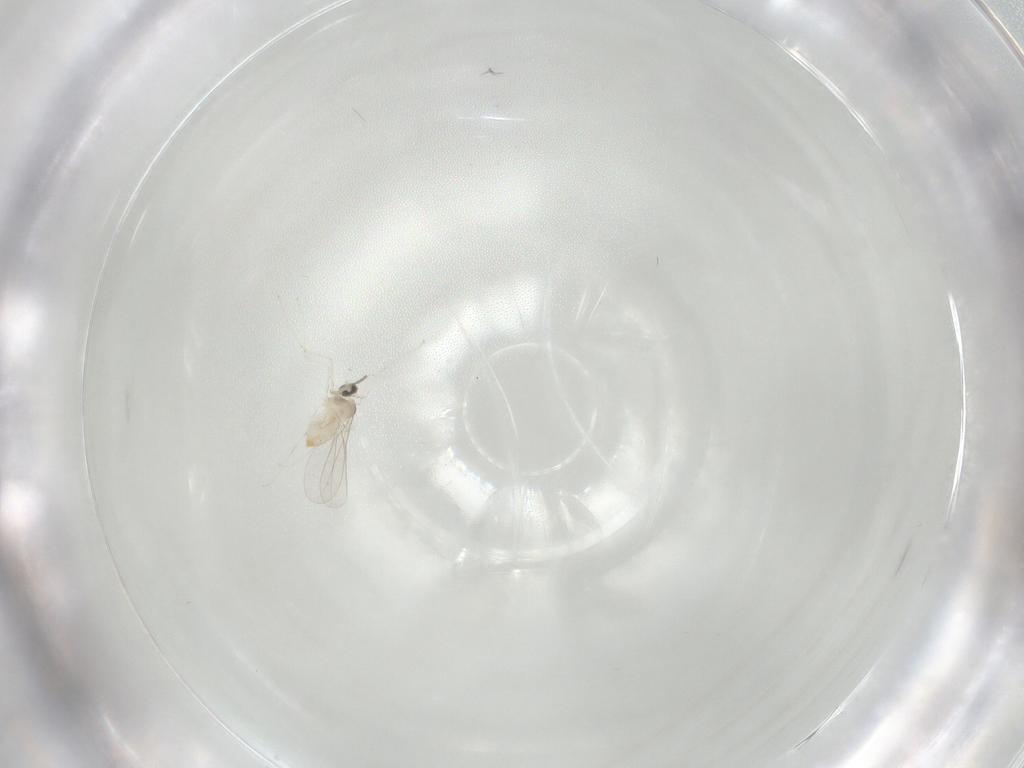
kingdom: Animalia
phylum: Arthropoda
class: Insecta
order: Diptera
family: Cecidomyiidae
